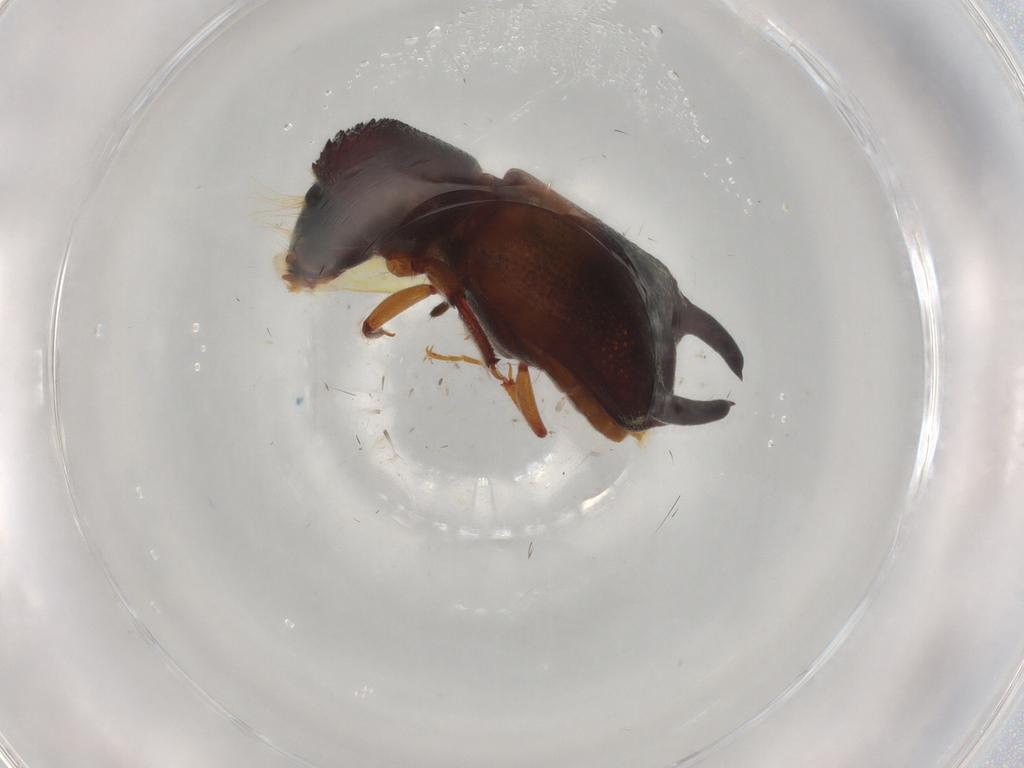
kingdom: Animalia
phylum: Arthropoda
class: Insecta
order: Coleoptera
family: Bostrichidae
